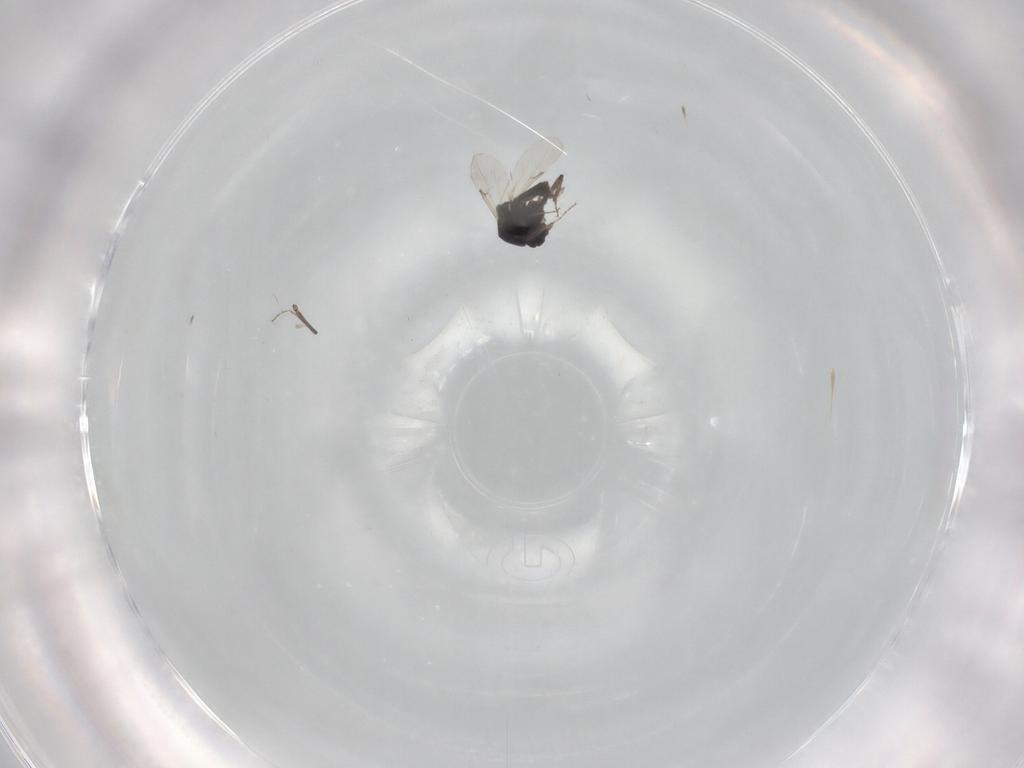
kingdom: Animalia
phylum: Arthropoda
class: Insecta
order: Diptera
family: Ceratopogonidae
